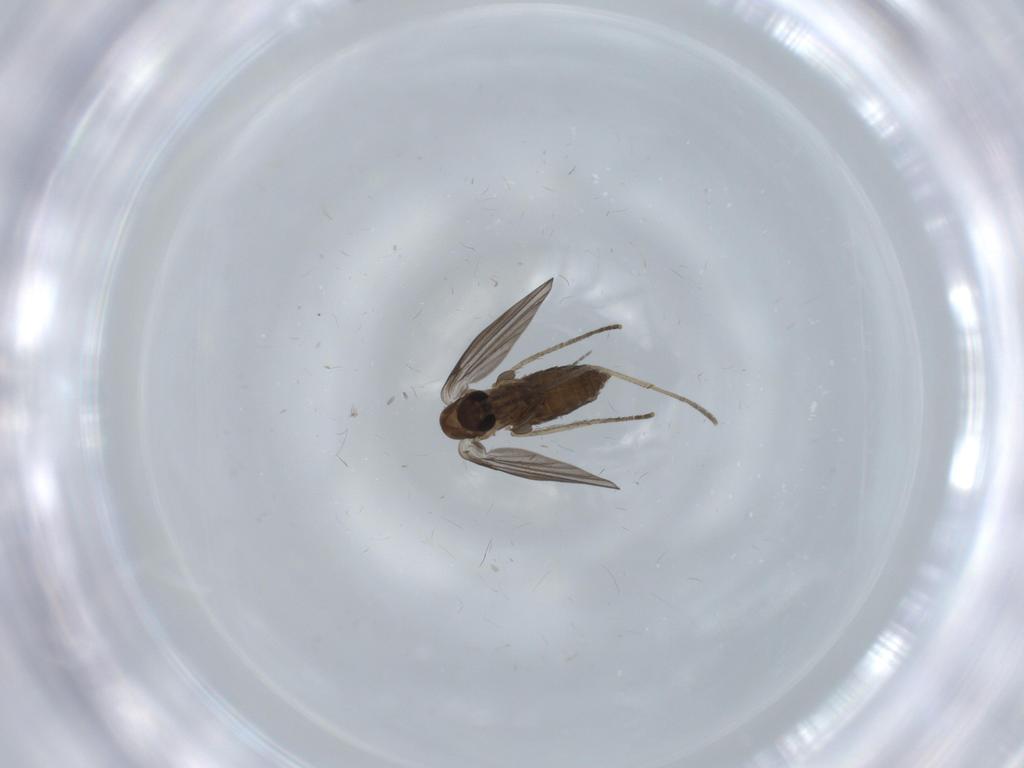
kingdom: Animalia
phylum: Arthropoda
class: Insecta
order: Diptera
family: Psychodidae
